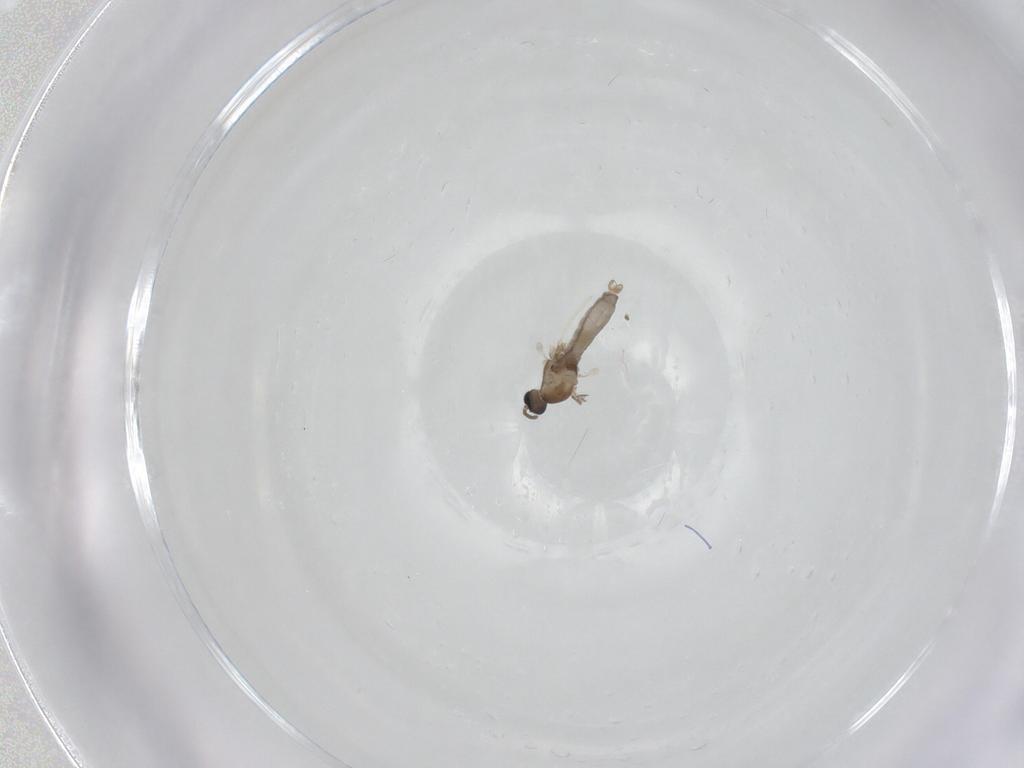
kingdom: Animalia
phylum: Arthropoda
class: Insecta
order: Diptera
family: Cecidomyiidae
